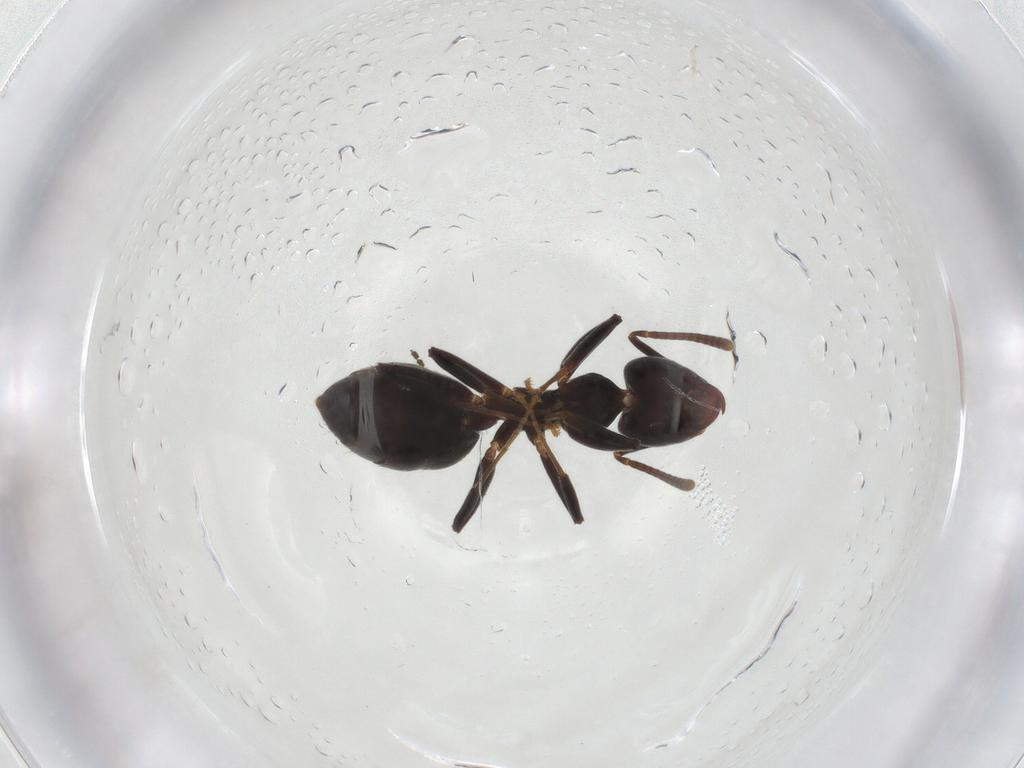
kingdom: Animalia
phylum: Arthropoda
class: Insecta
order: Hymenoptera
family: Formicidae
